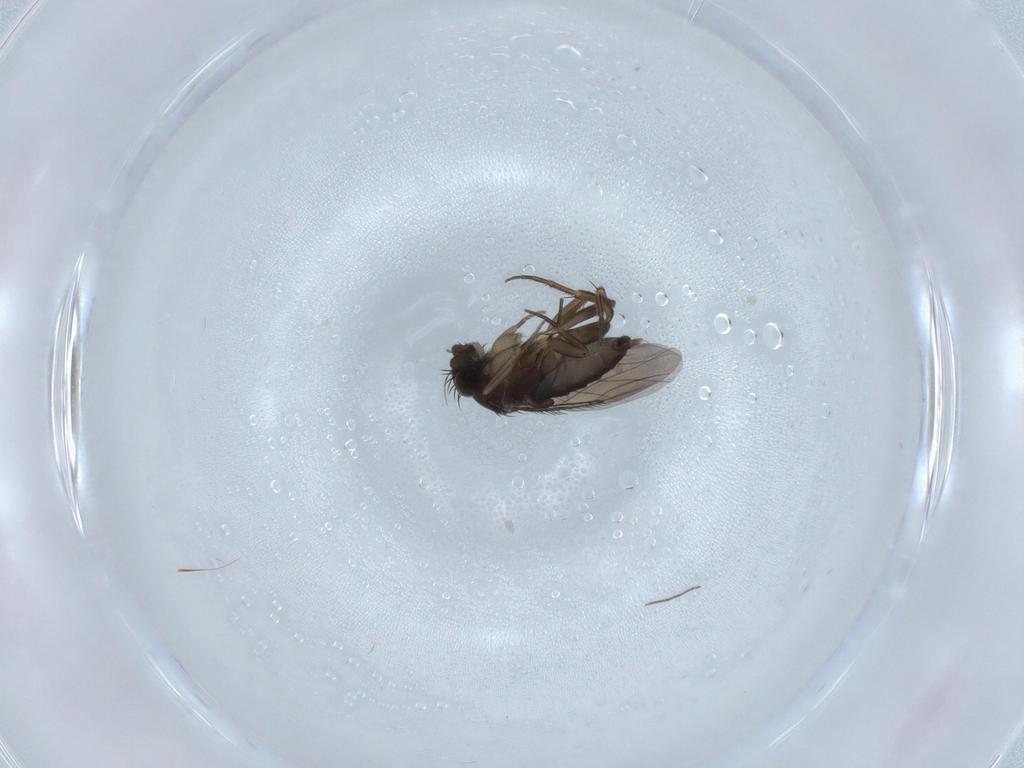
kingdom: Animalia
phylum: Arthropoda
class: Insecta
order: Diptera
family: Phoridae
